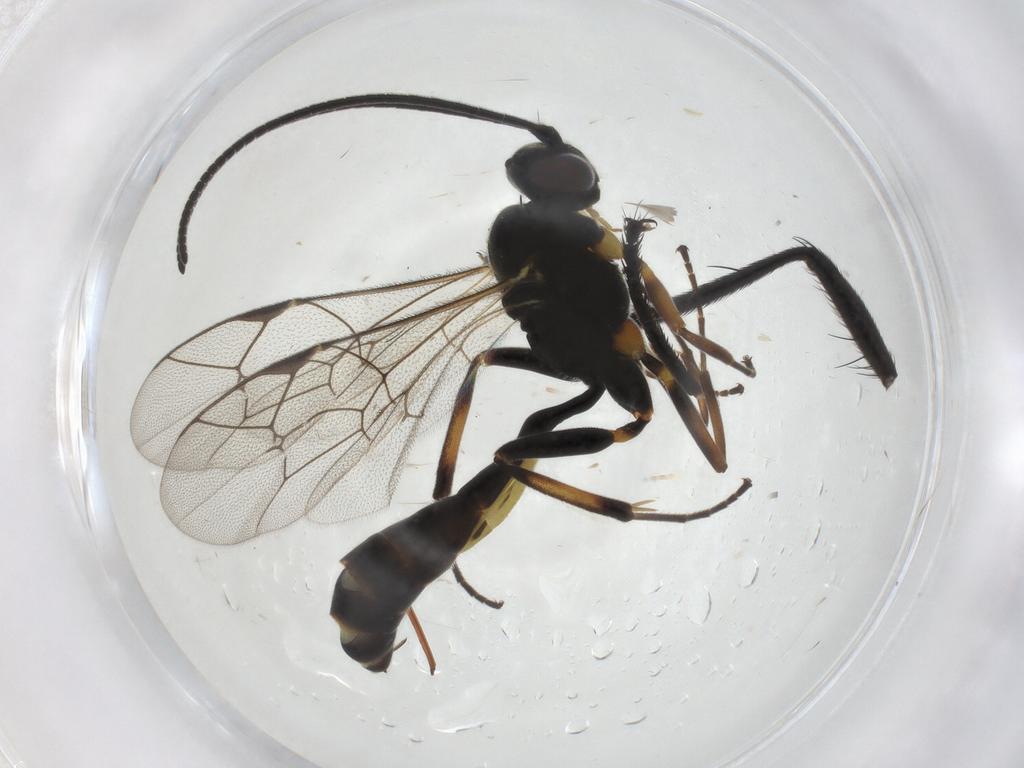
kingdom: Animalia
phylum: Arthropoda
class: Insecta
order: Hymenoptera
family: Ichneumonidae
